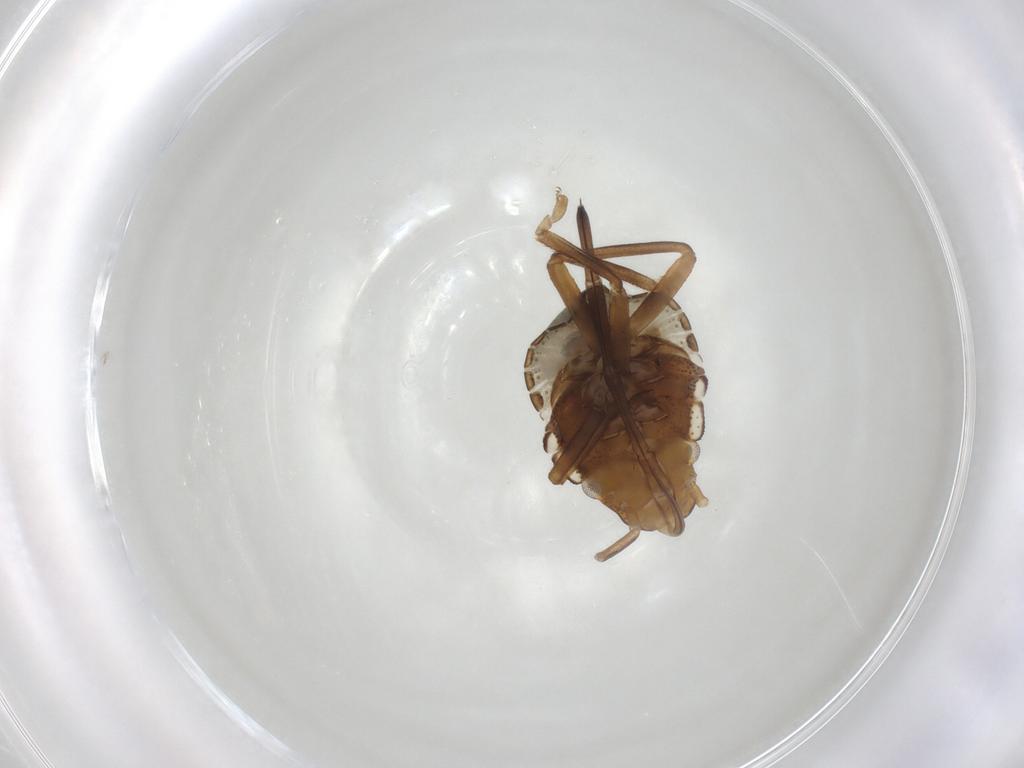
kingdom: Animalia
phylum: Arthropoda
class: Insecta
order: Hemiptera
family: Pentatomidae
